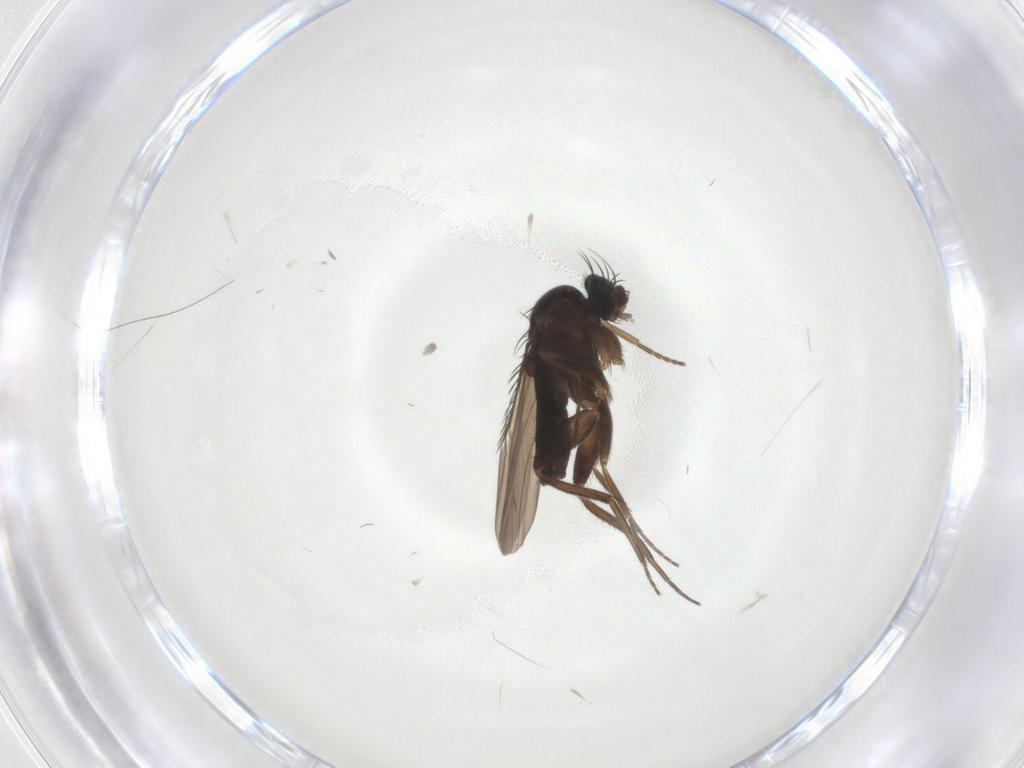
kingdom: Animalia
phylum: Arthropoda
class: Insecta
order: Diptera
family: Phoridae
